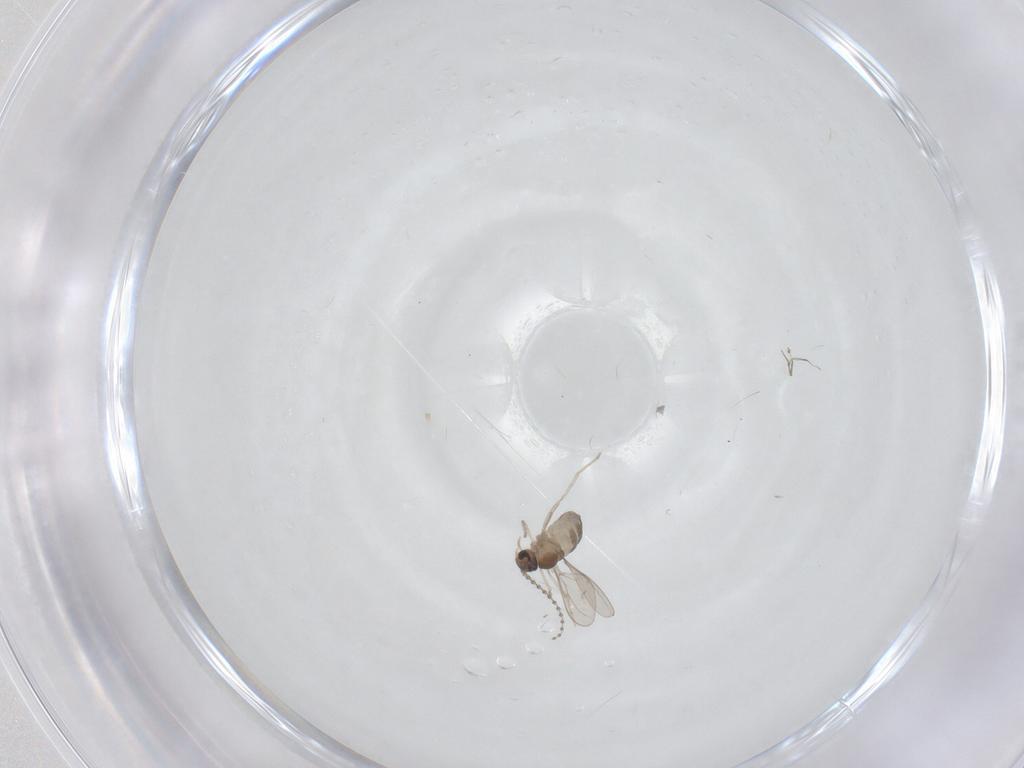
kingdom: Animalia
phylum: Arthropoda
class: Insecta
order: Diptera
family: Cecidomyiidae
